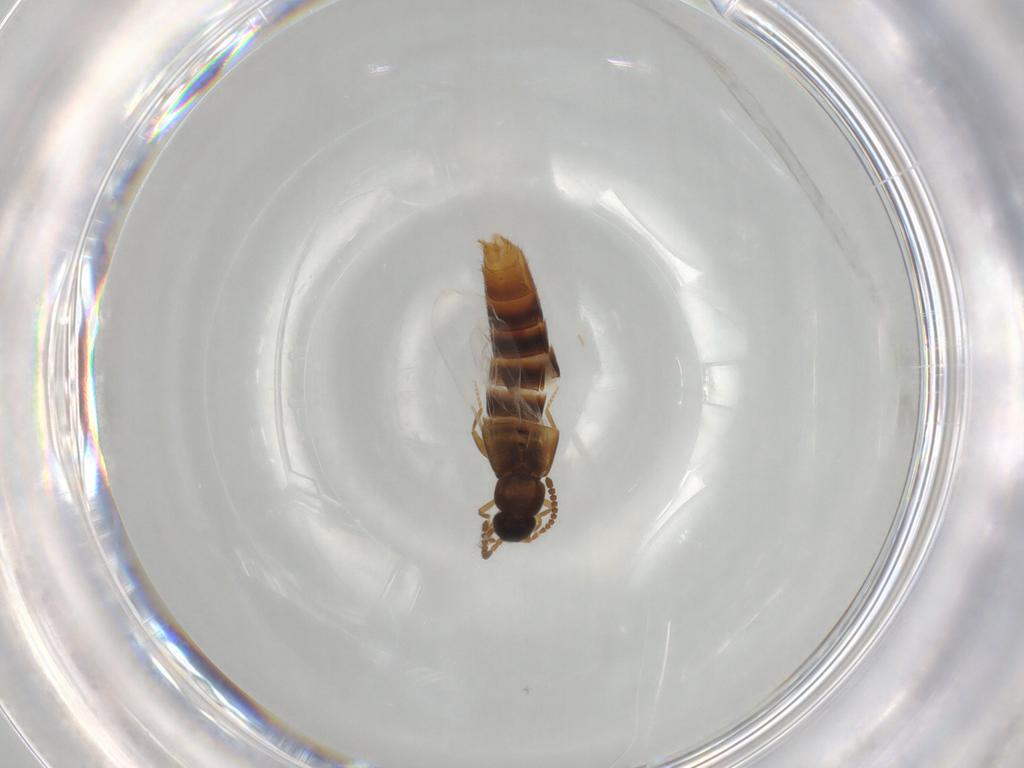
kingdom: Animalia
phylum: Arthropoda
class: Insecta
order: Coleoptera
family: Staphylinidae
